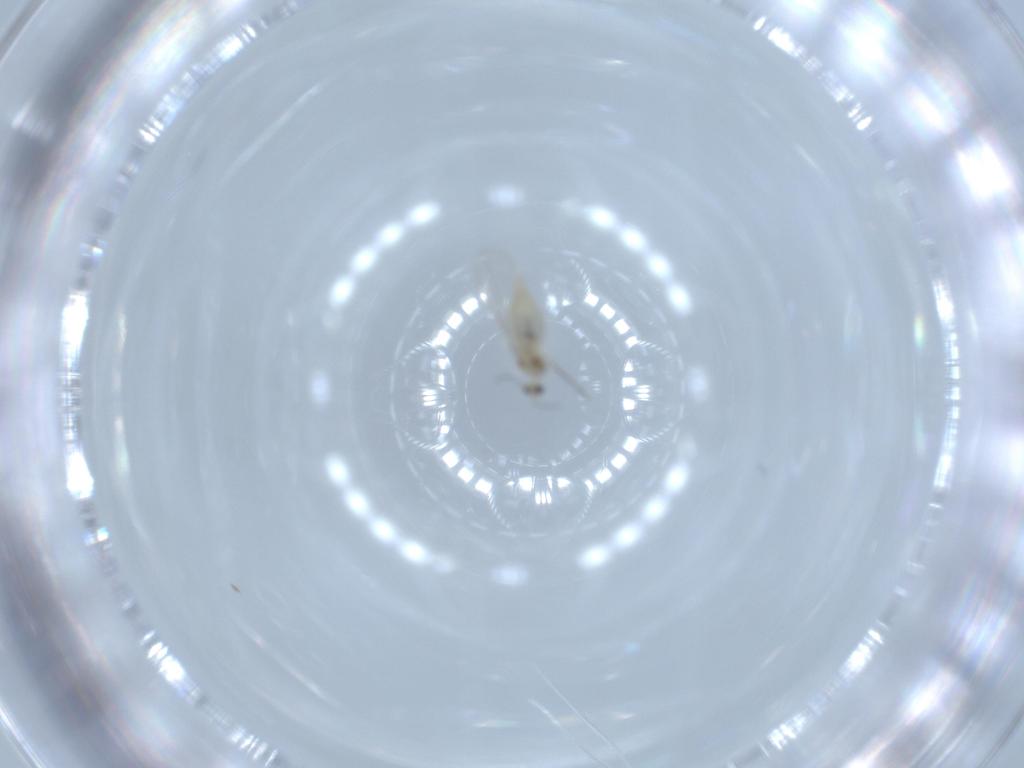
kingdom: Animalia
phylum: Arthropoda
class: Insecta
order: Diptera
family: Cecidomyiidae
